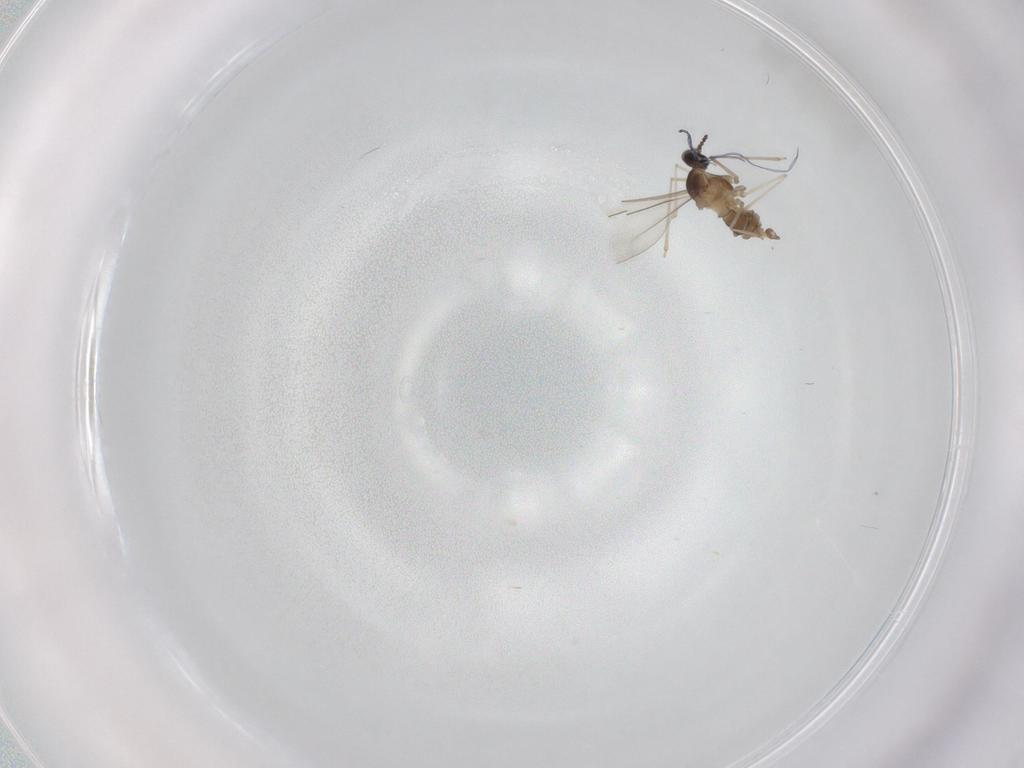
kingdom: Animalia
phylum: Arthropoda
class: Insecta
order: Diptera
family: Cecidomyiidae
